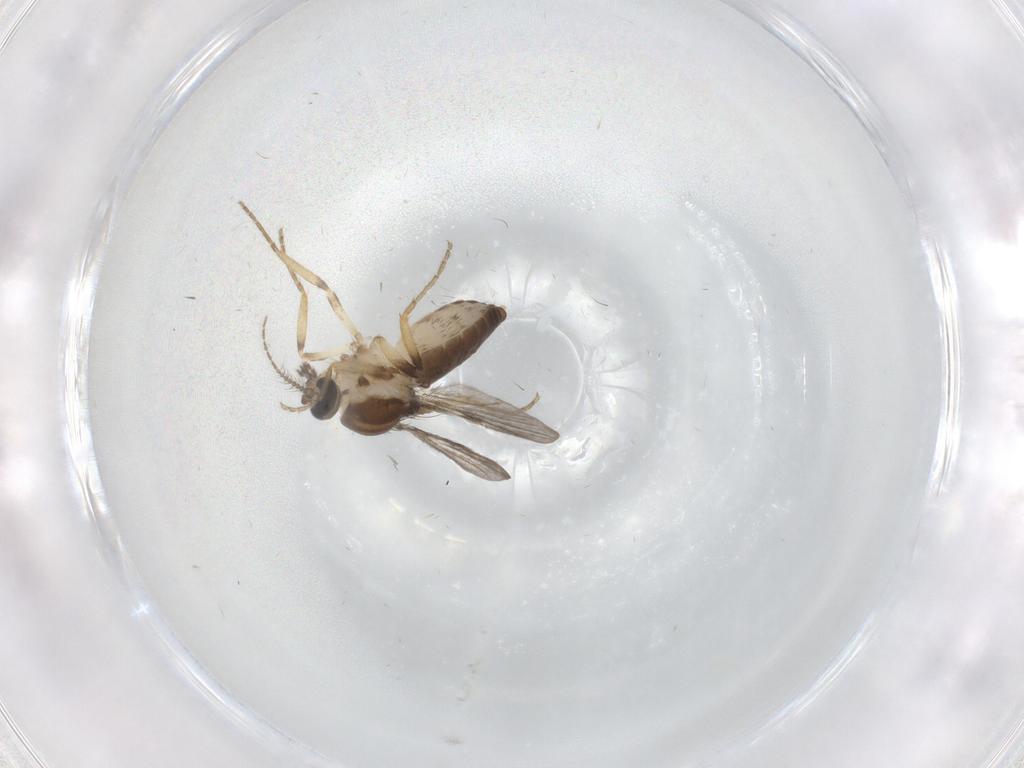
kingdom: Animalia
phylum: Arthropoda
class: Insecta
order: Diptera
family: Ceratopogonidae
